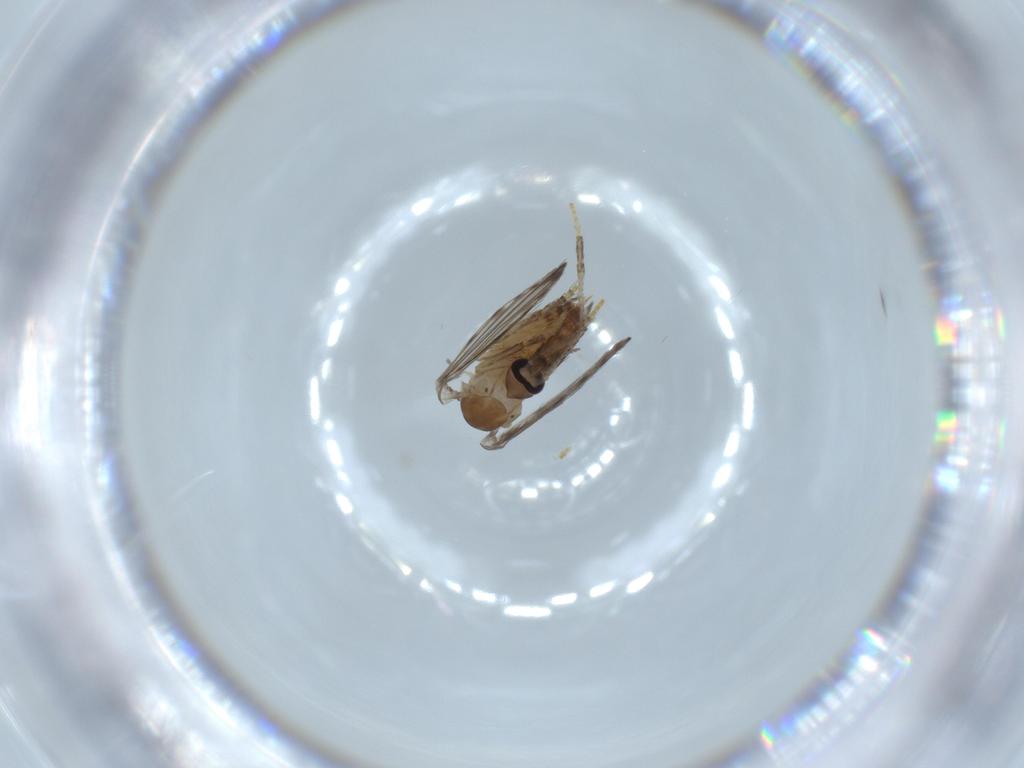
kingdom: Animalia
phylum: Arthropoda
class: Insecta
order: Diptera
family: Psychodidae
